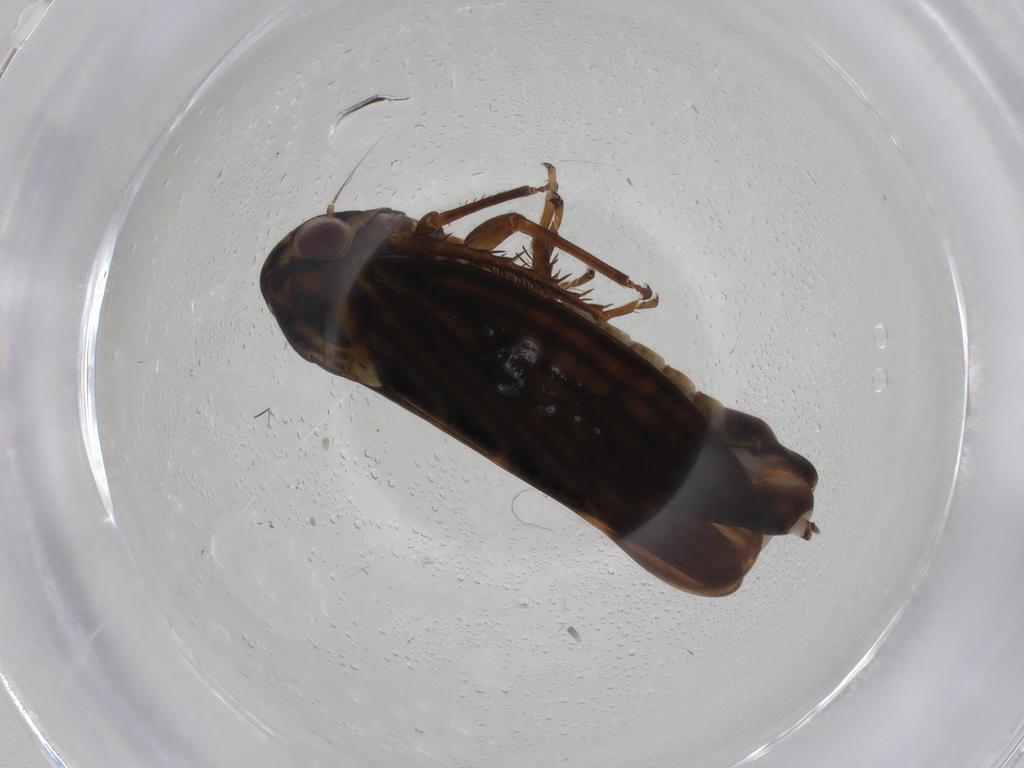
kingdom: Animalia
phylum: Arthropoda
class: Insecta
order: Hemiptera
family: Cicadellidae
